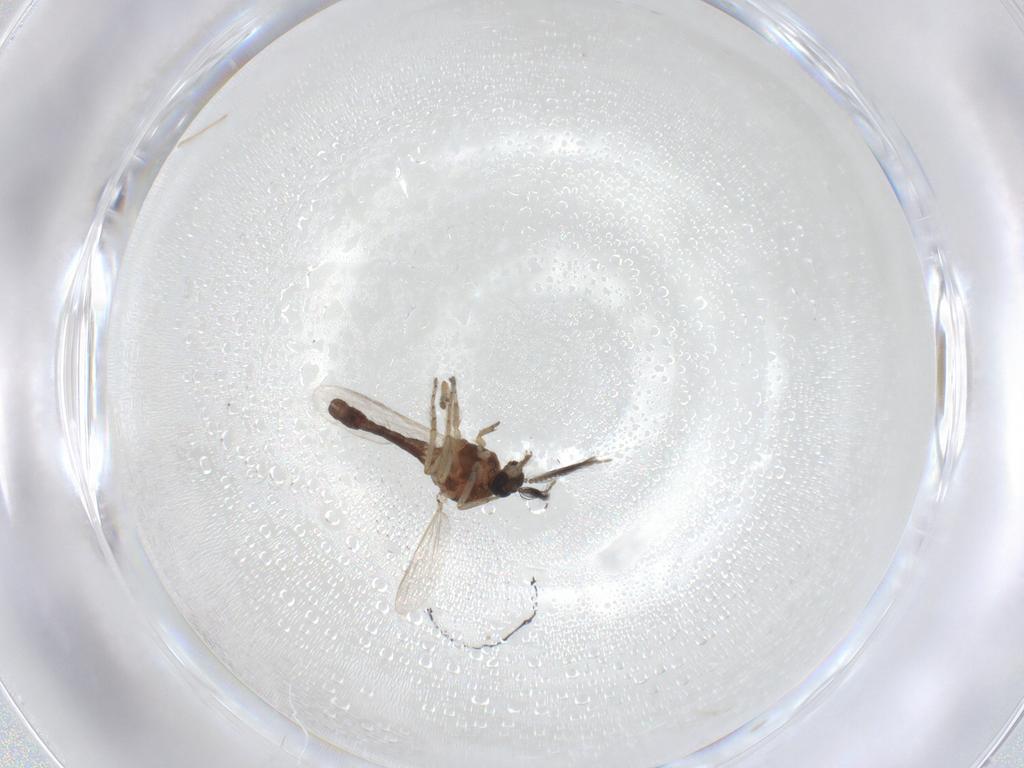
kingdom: Animalia
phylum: Arthropoda
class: Insecta
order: Diptera
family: Ceratopogonidae
